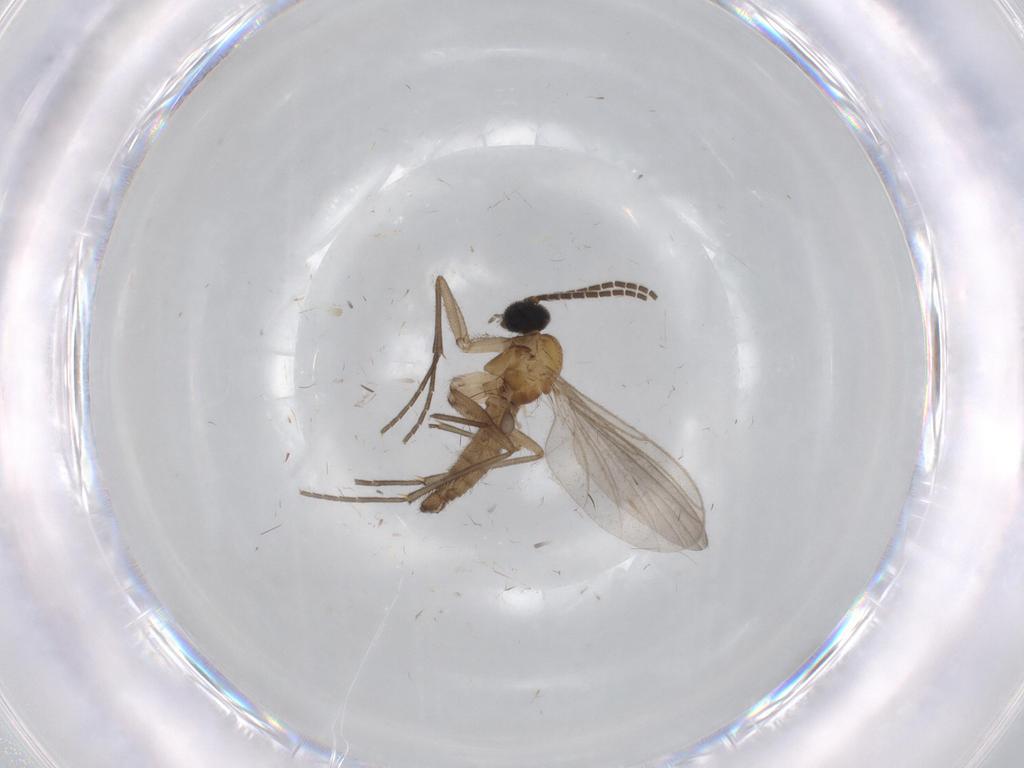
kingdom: Animalia
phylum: Arthropoda
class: Insecta
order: Diptera
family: Sciaridae
